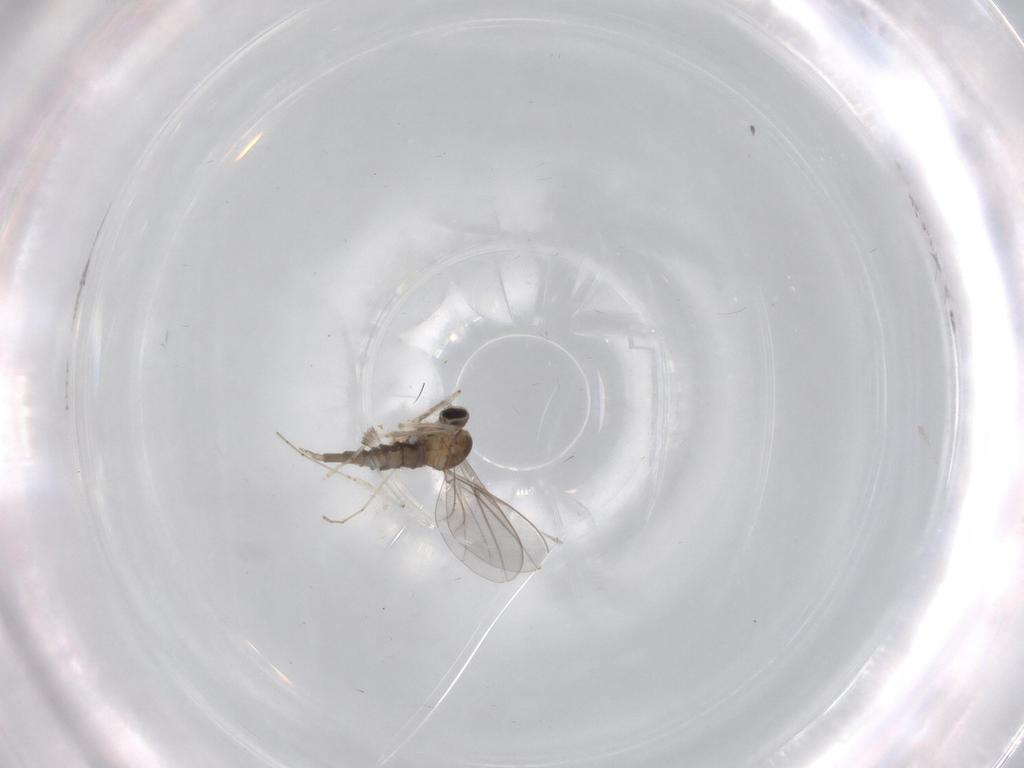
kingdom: Animalia
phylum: Arthropoda
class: Insecta
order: Diptera
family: Cecidomyiidae
